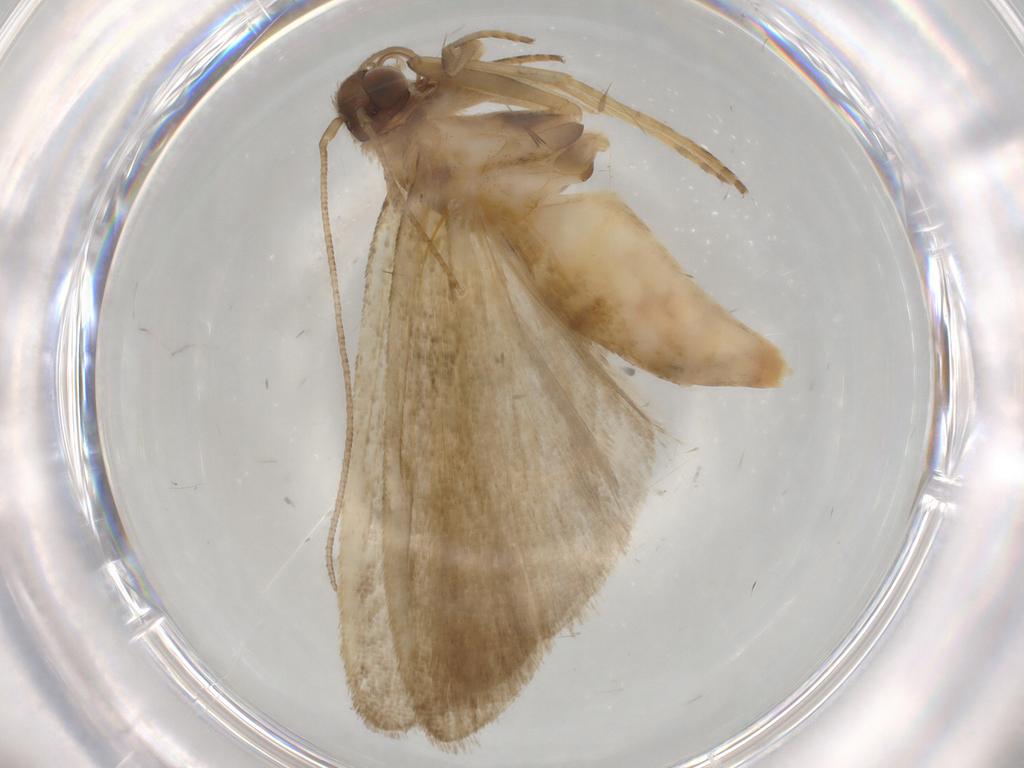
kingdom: Animalia
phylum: Arthropoda
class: Insecta
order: Lepidoptera
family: Noctuidae
